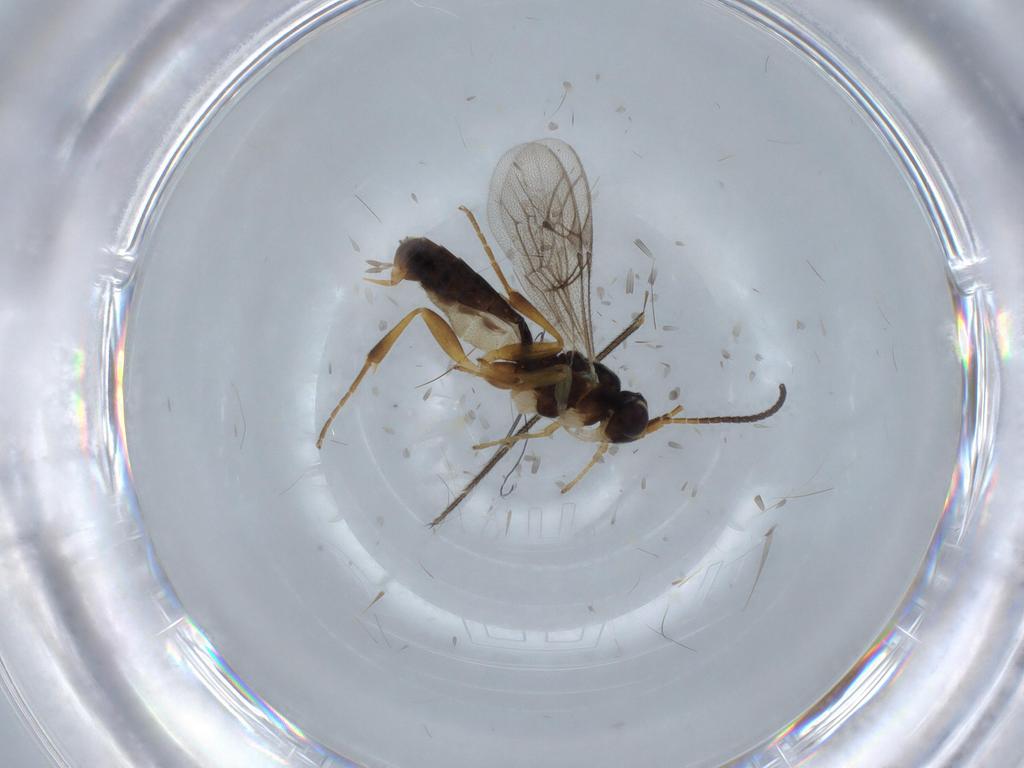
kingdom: Animalia
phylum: Arthropoda
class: Insecta
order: Hymenoptera
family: Ichneumonidae
